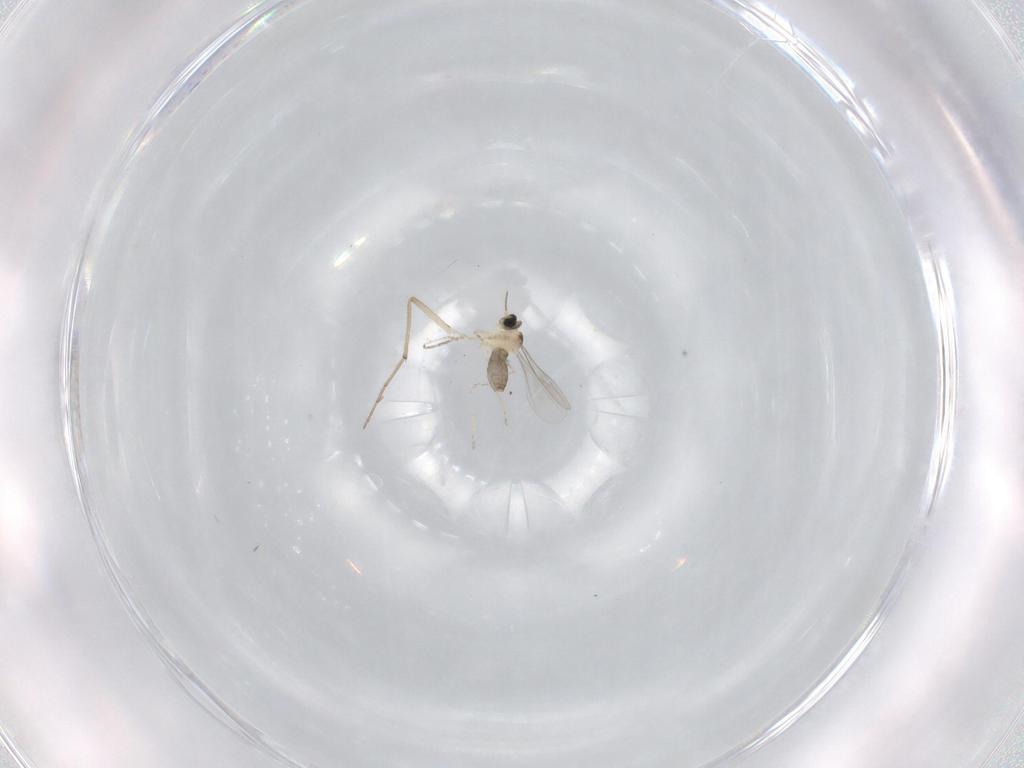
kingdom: Animalia
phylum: Arthropoda
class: Insecta
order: Diptera
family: Chironomidae
